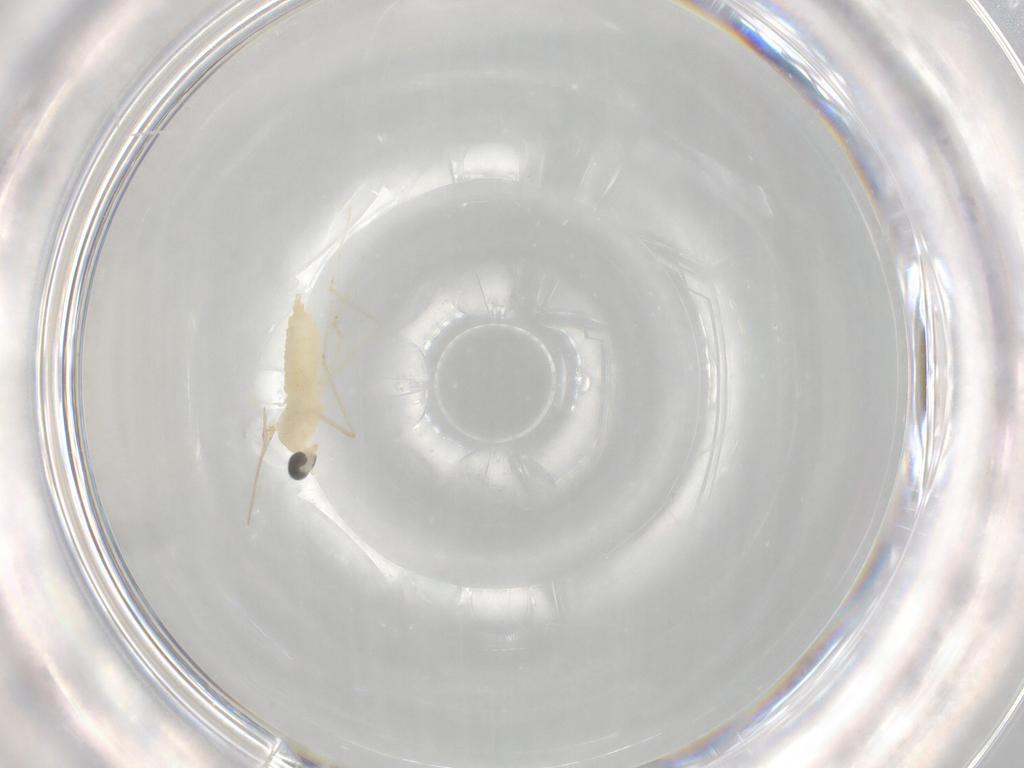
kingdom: Animalia
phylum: Arthropoda
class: Insecta
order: Diptera
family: Cecidomyiidae
